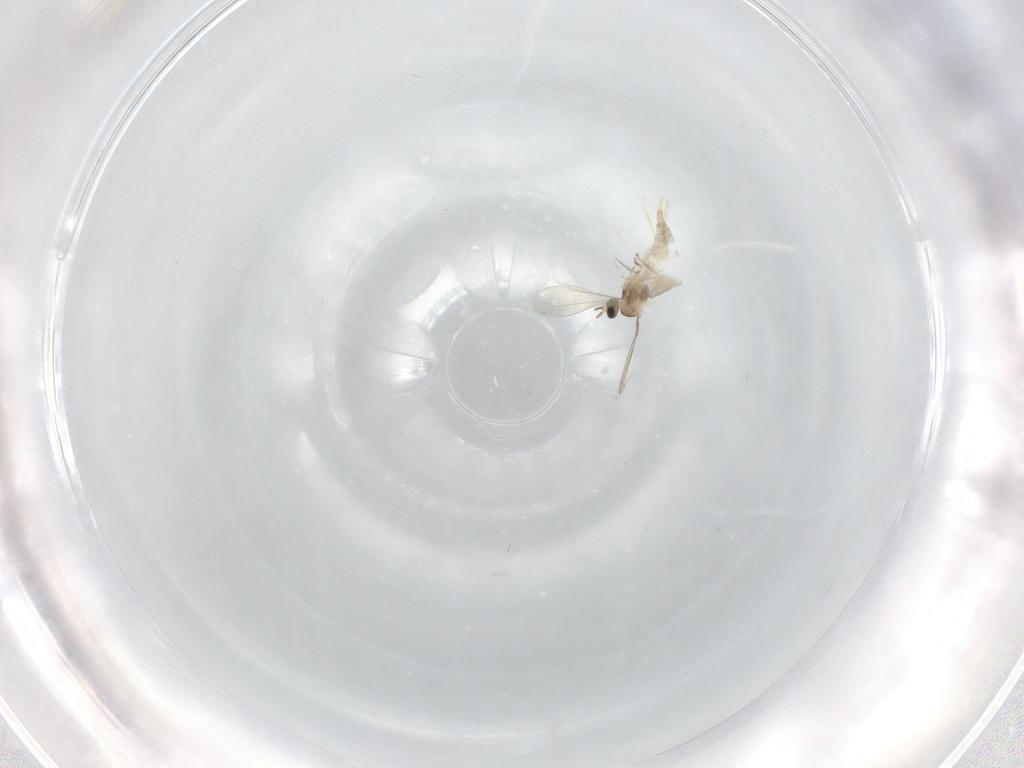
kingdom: Animalia
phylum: Arthropoda
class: Insecta
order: Diptera
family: Cecidomyiidae
